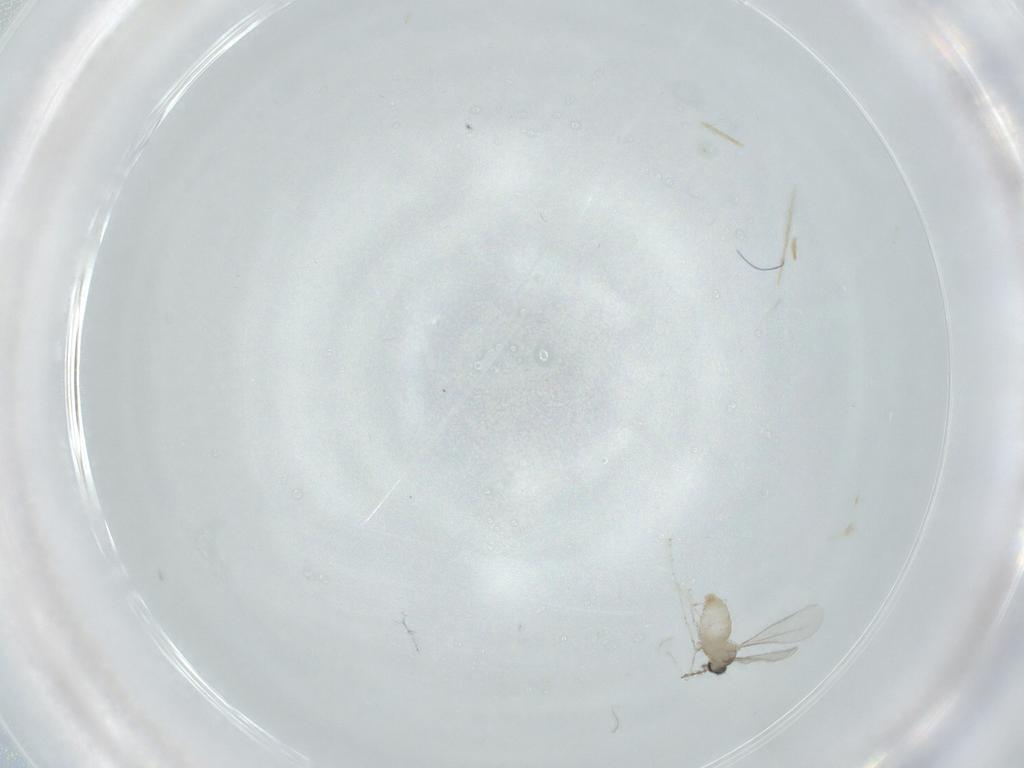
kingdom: Animalia
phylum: Arthropoda
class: Insecta
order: Diptera
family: Cecidomyiidae
